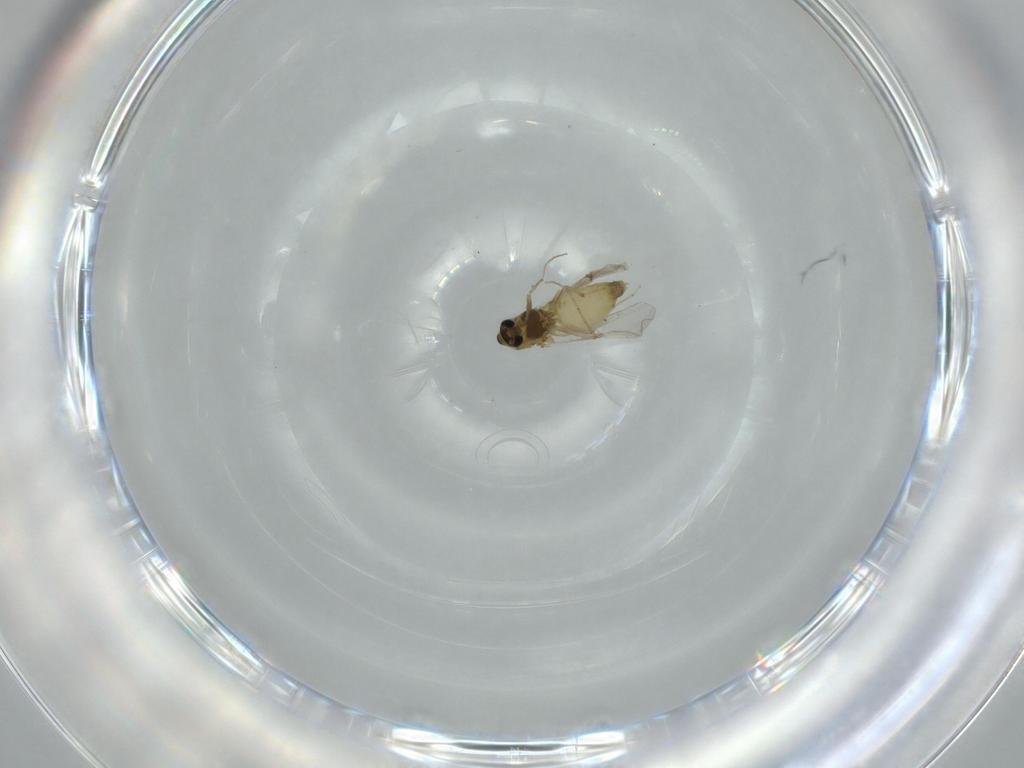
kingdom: Animalia
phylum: Arthropoda
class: Insecta
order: Diptera
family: Chironomidae
